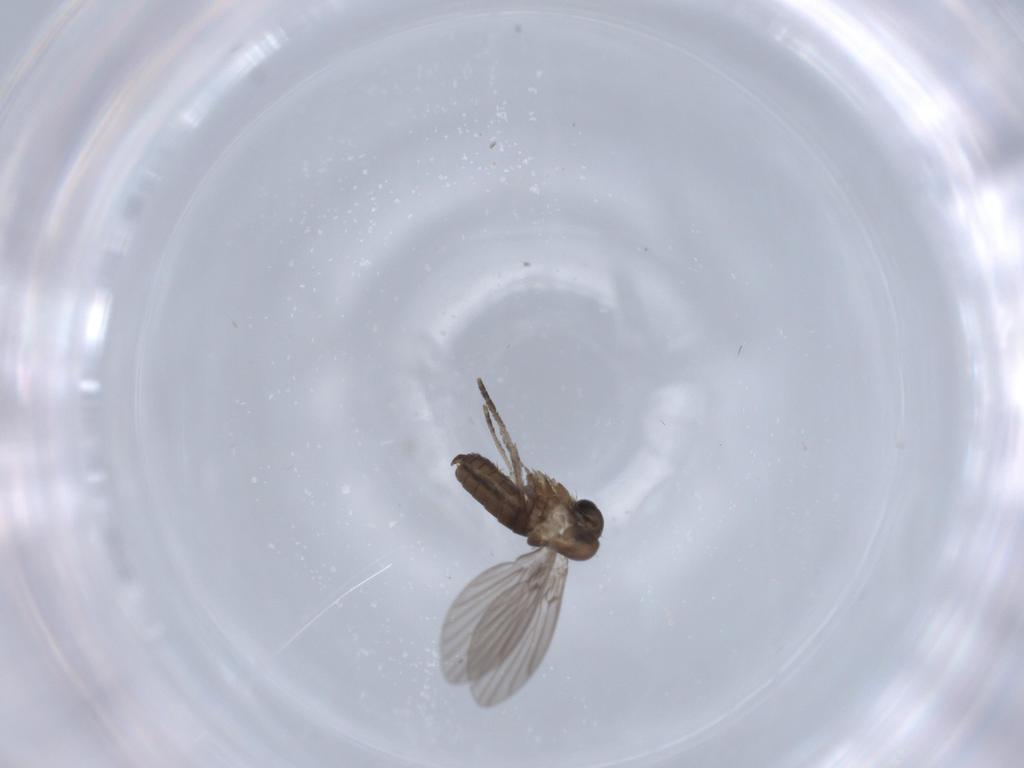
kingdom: Animalia
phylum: Arthropoda
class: Insecta
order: Diptera
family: Psychodidae
